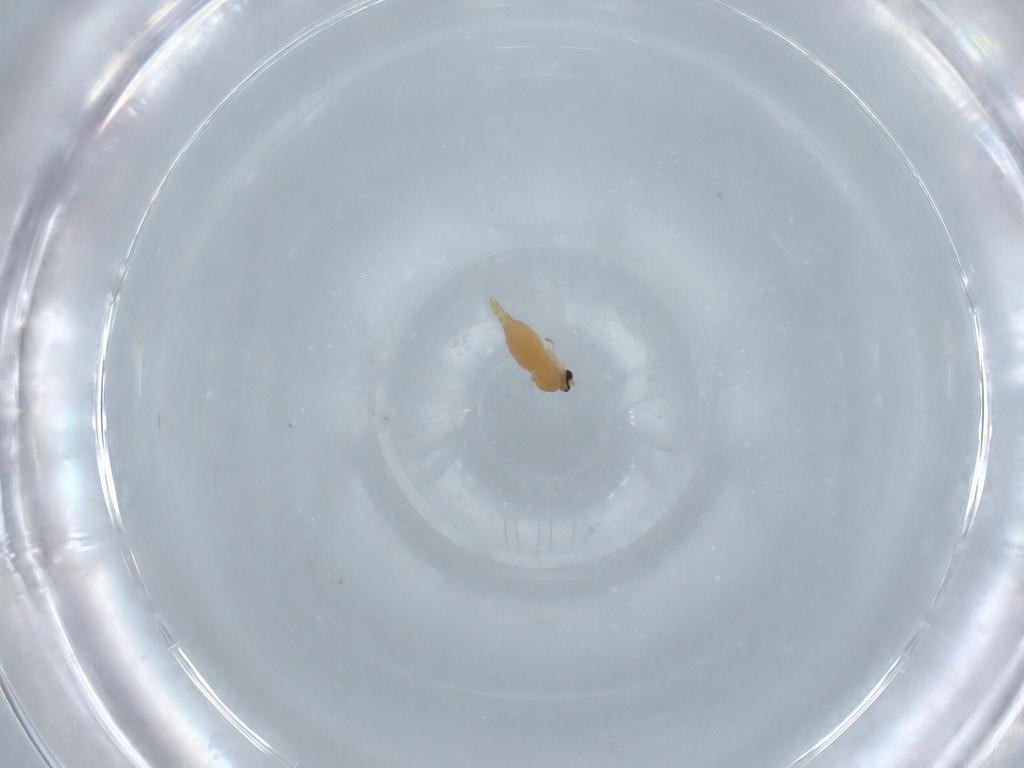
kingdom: Animalia
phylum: Arthropoda
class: Insecta
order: Diptera
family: Cecidomyiidae
